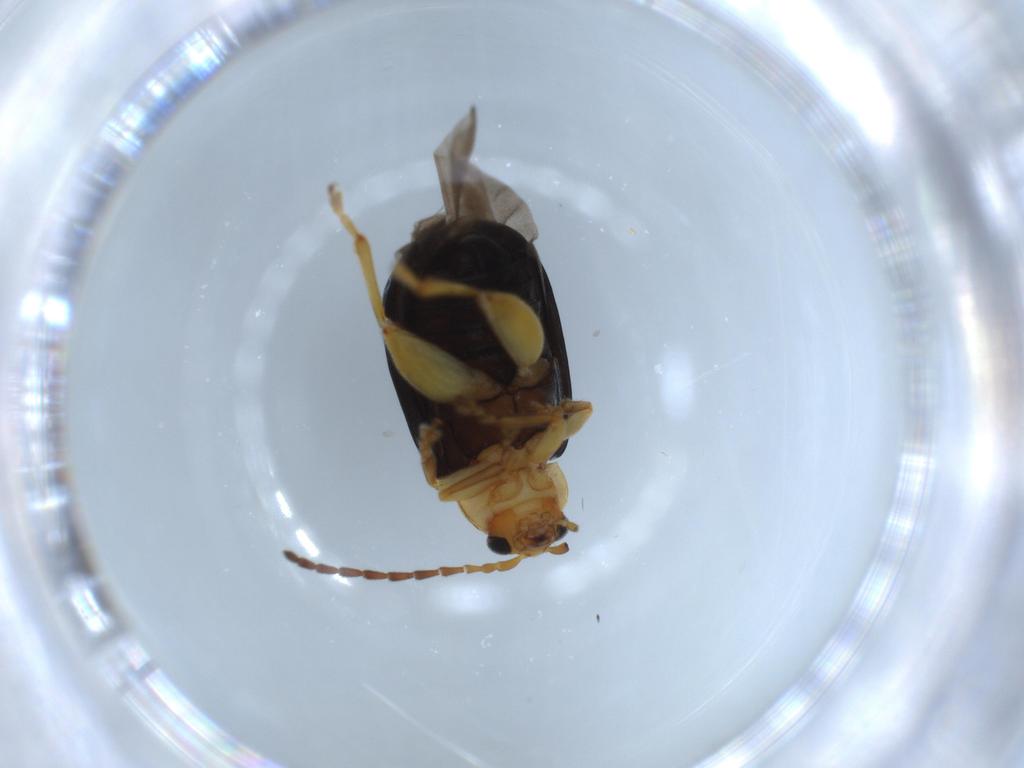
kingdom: Animalia
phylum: Arthropoda
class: Insecta
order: Coleoptera
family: Chrysomelidae
